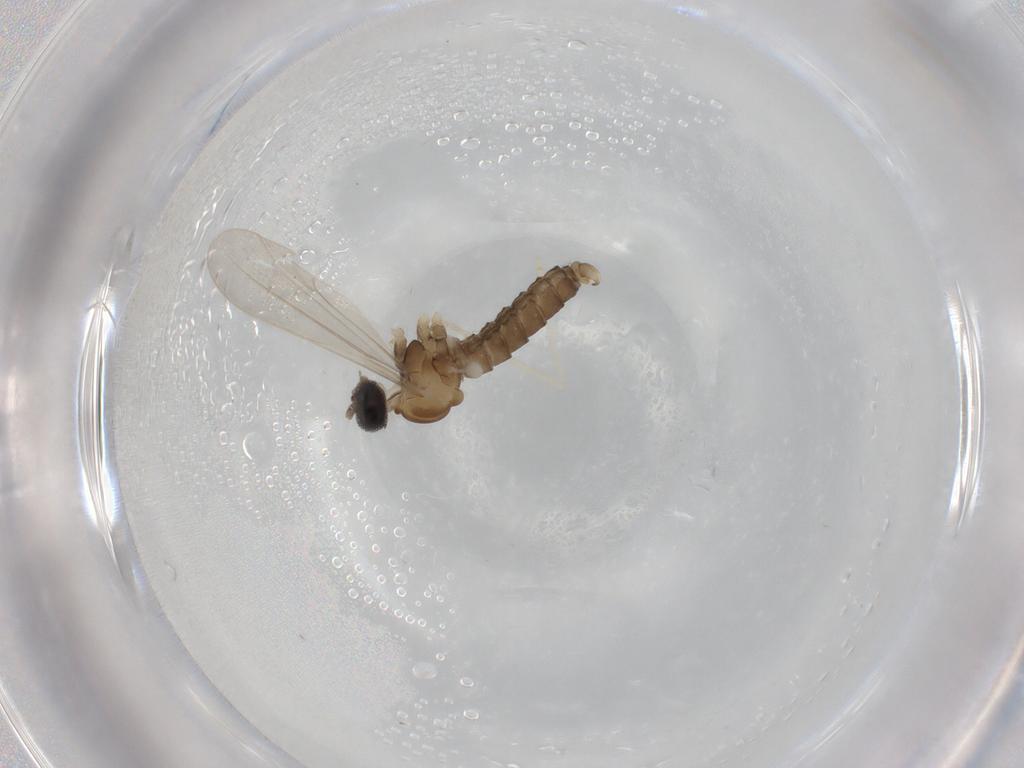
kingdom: Animalia
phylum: Arthropoda
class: Insecta
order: Diptera
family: Cecidomyiidae
